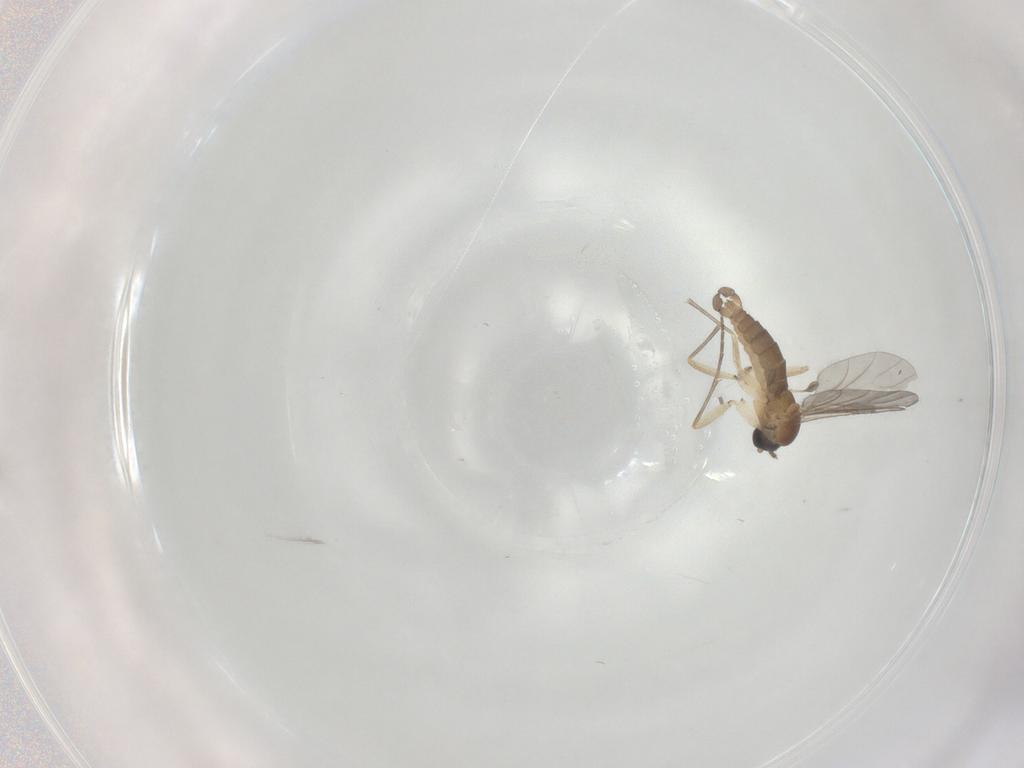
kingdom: Animalia
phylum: Arthropoda
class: Insecta
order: Diptera
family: Sciaridae
